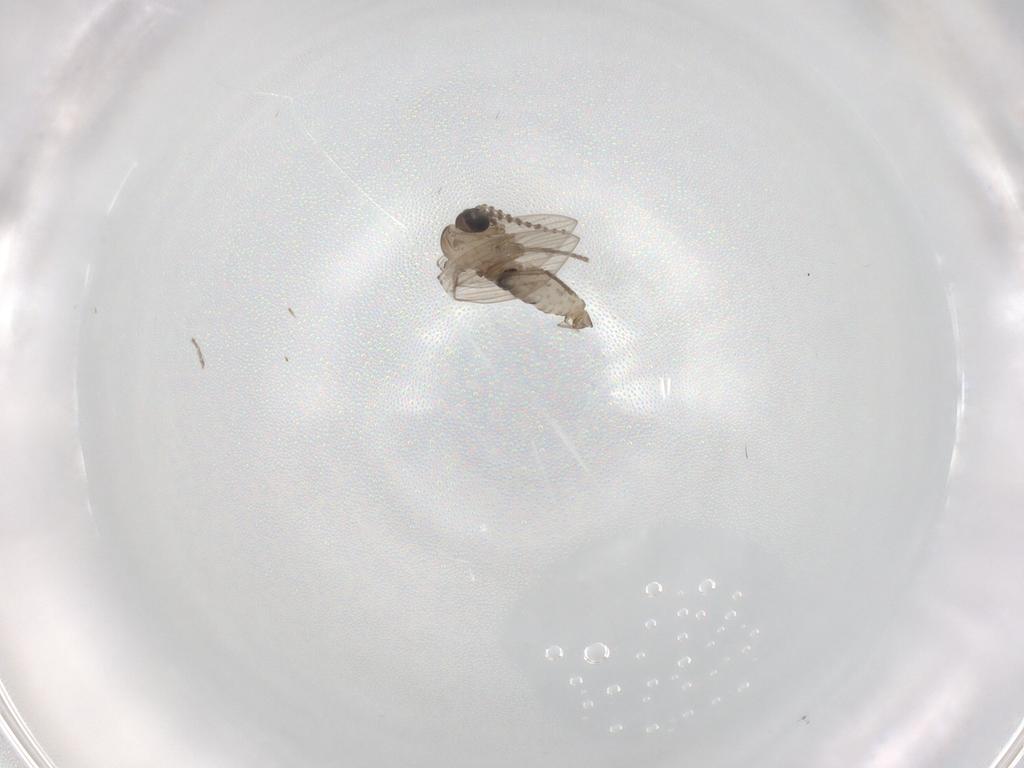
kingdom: Animalia
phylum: Arthropoda
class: Insecta
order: Diptera
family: Psychodidae
